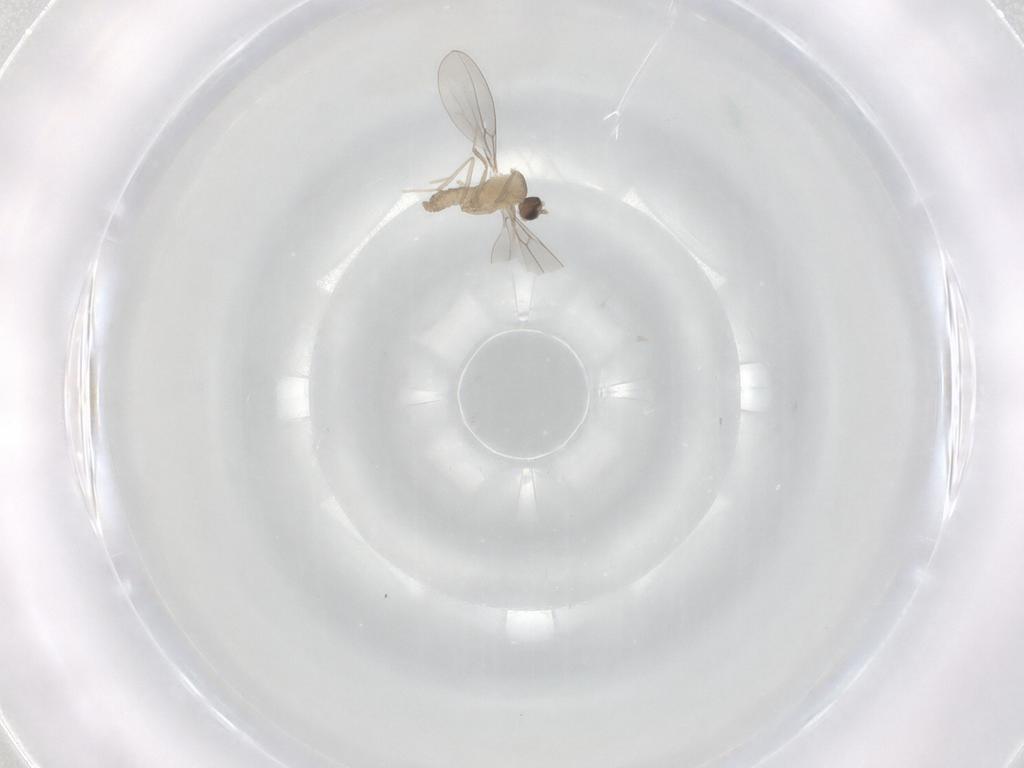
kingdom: Animalia
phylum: Arthropoda
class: Insecta
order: Diptera
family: Cecidomyiidae
